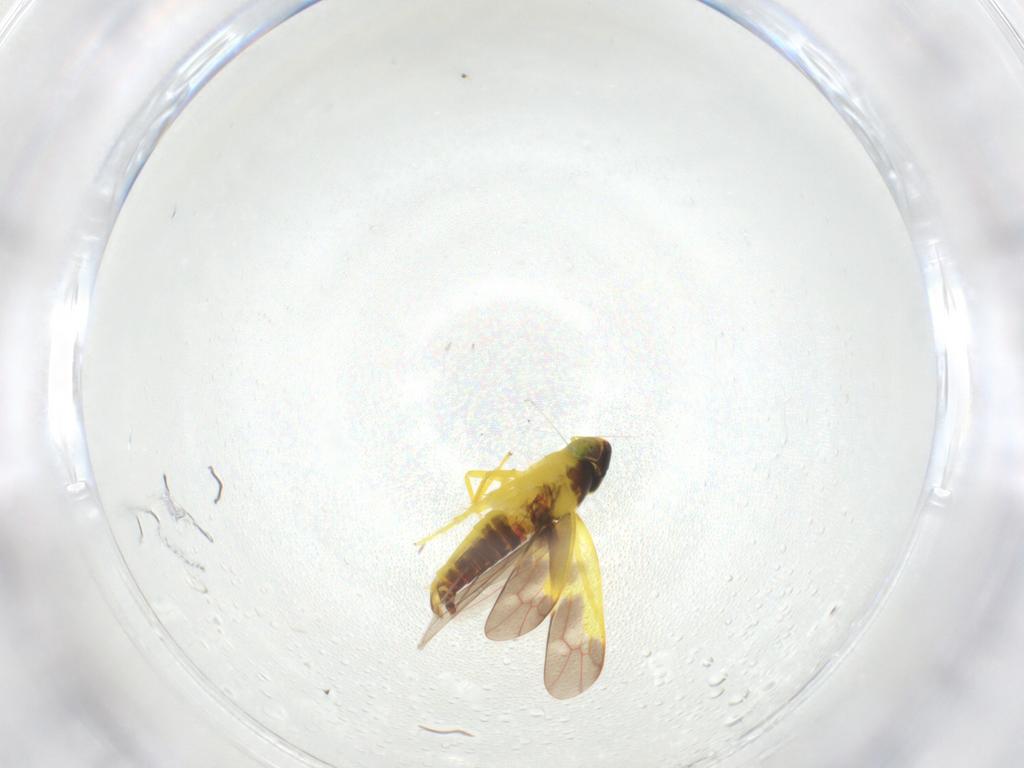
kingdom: Animalia
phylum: Arthropoda
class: Insecta
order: Hemiptera
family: Cicadellidae
